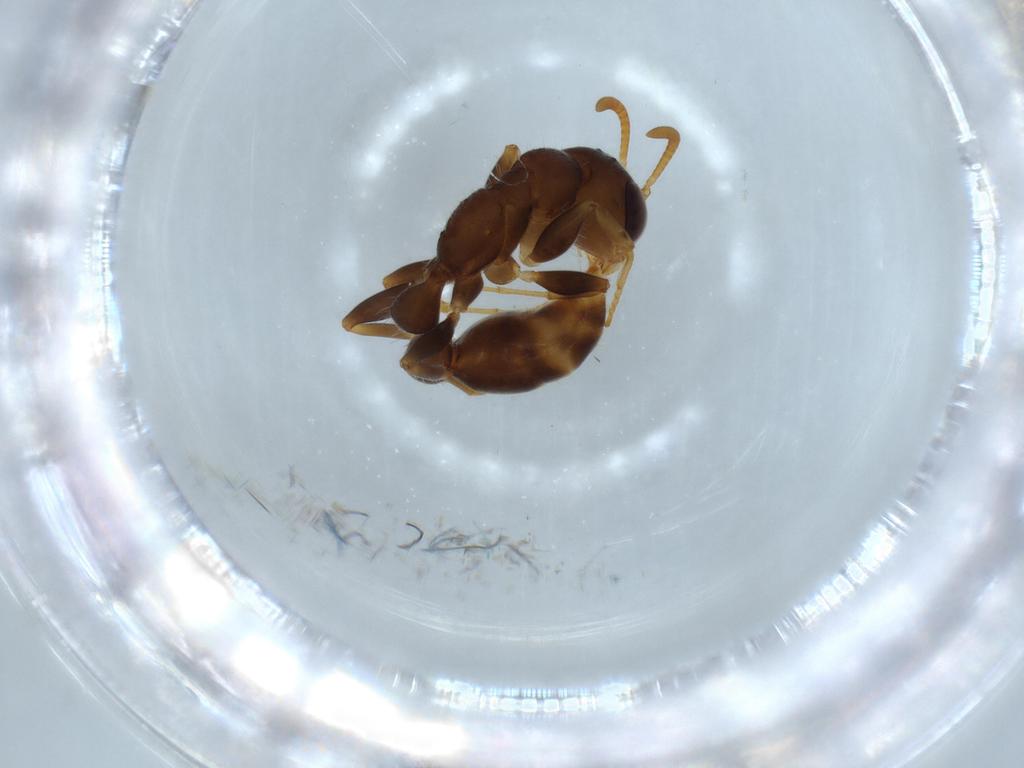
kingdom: Animalia
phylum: Arthropoda
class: Insecta
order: Hymenoptera
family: Formicidae
